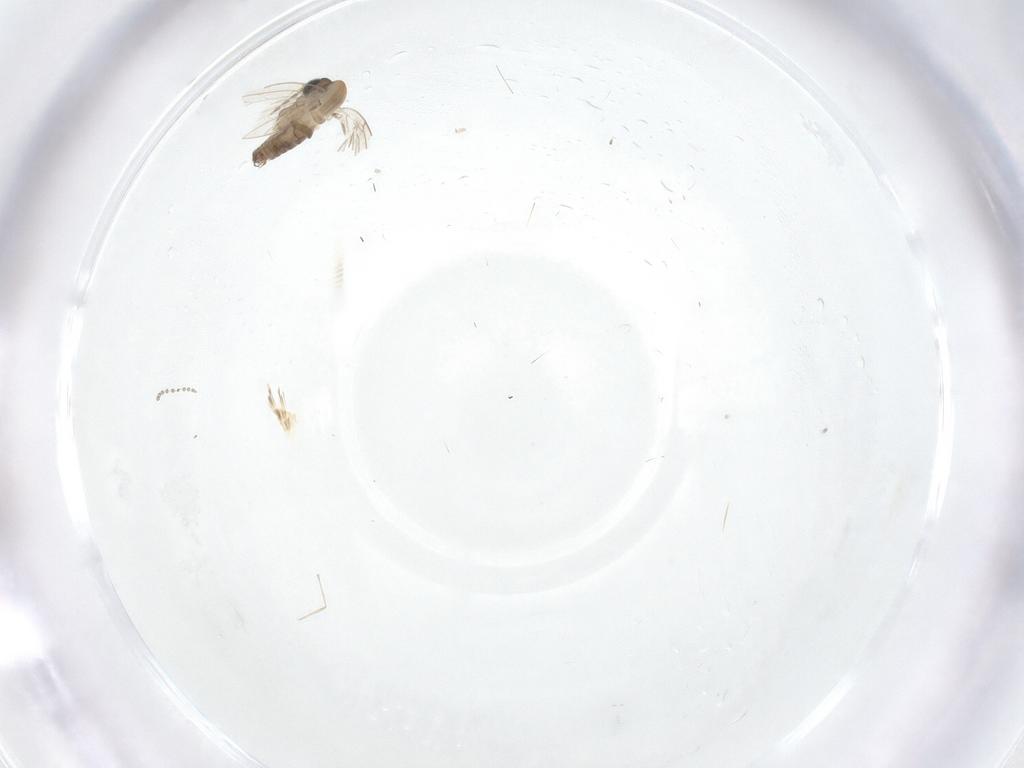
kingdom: Animalia
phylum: Arthropoda
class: Insecta
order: Diptera
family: Psychodidae
